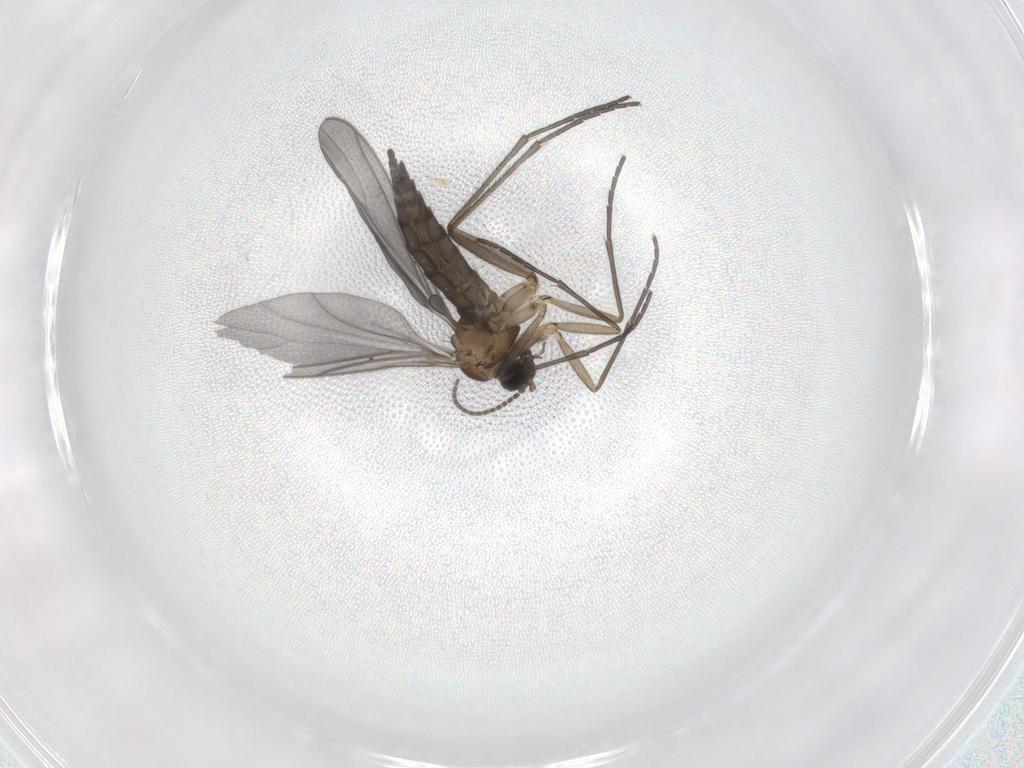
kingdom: Animalia
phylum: Arthropoda
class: Insecta
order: Diptera
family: Sciaridae
